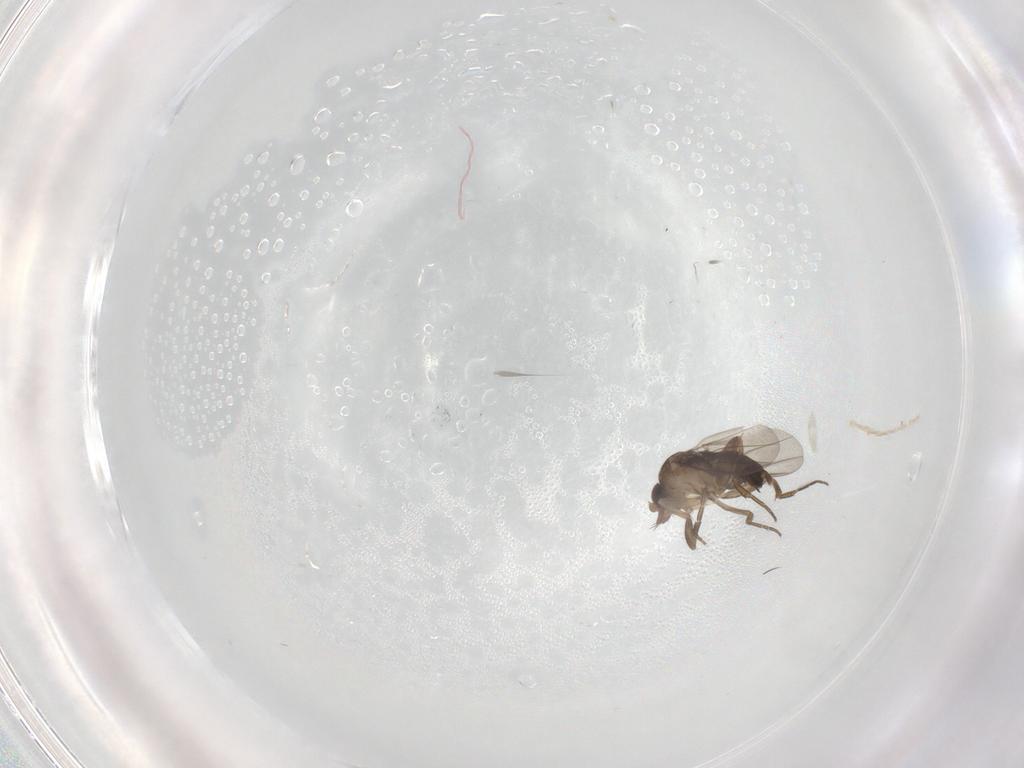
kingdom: Animalia
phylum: Arthropoda
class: Insecta
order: Diptera
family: Phoridae
